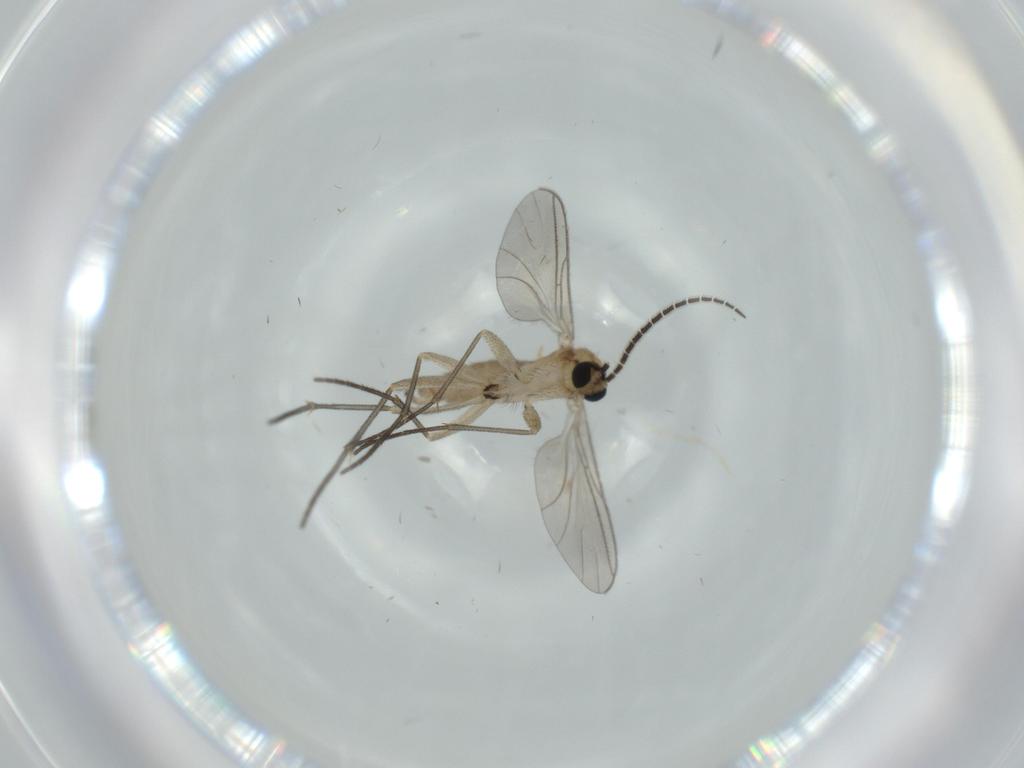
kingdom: Animalia
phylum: Arthropoda
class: Insecta
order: Diptera
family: Sciaridae
